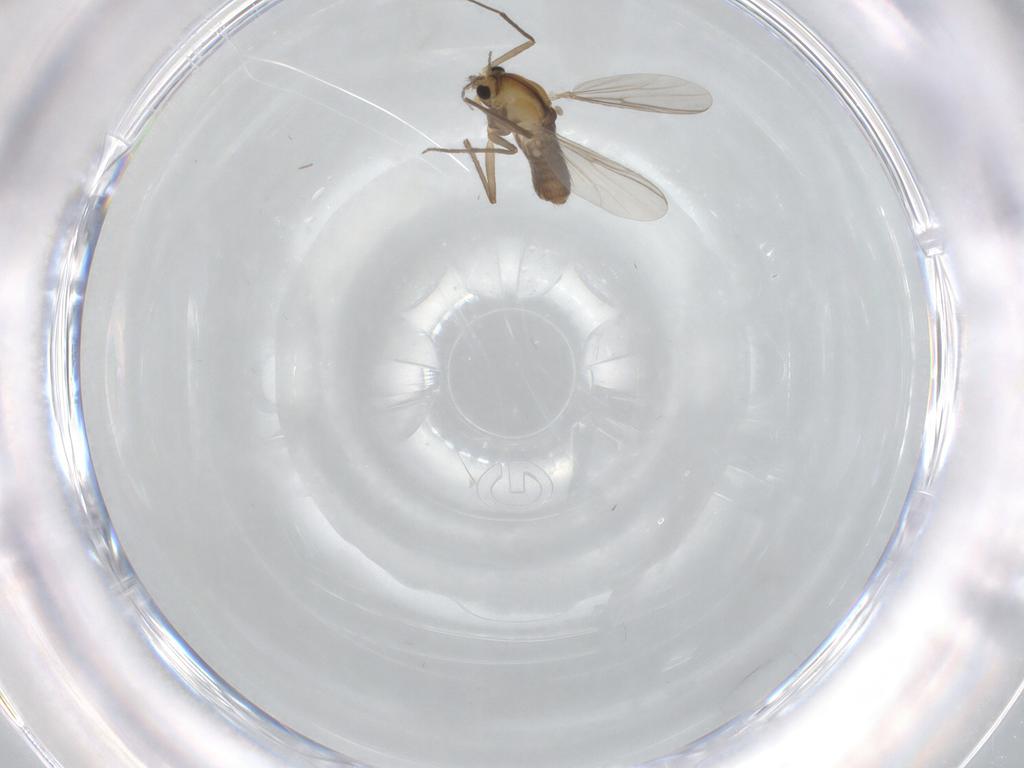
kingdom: Animalia
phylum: Arthropoda
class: Insecta
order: Diptera
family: Chironomidae
